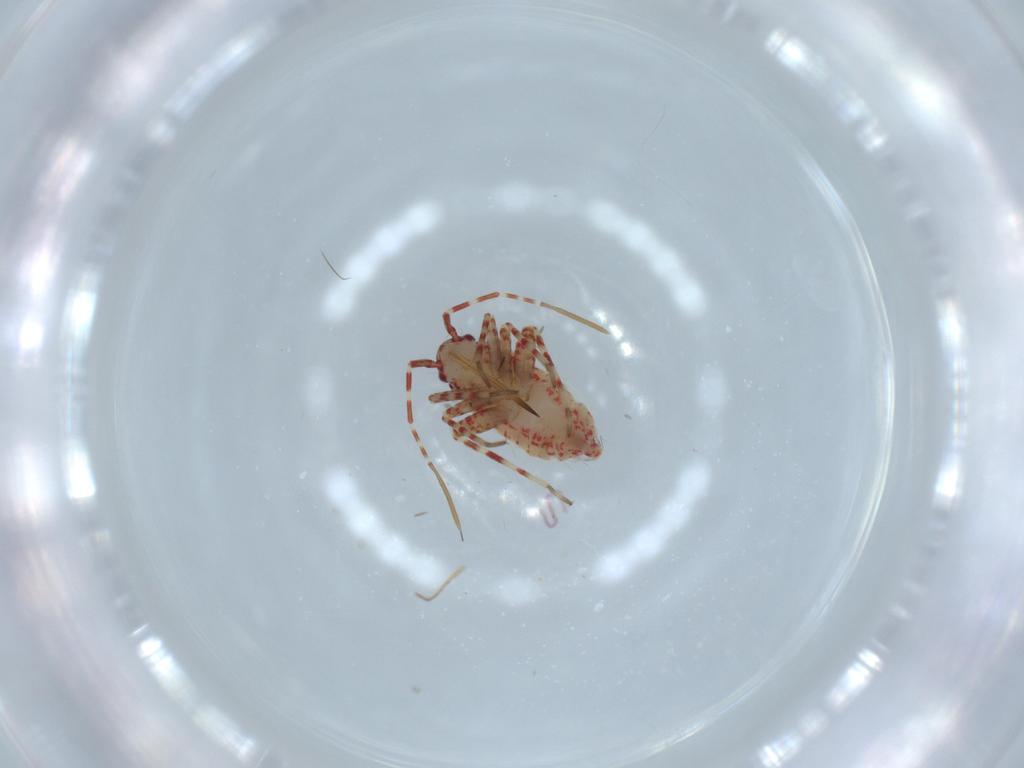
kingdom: Animalia
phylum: Arthropoda
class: Insecta
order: Hemiptera
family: Miridae
